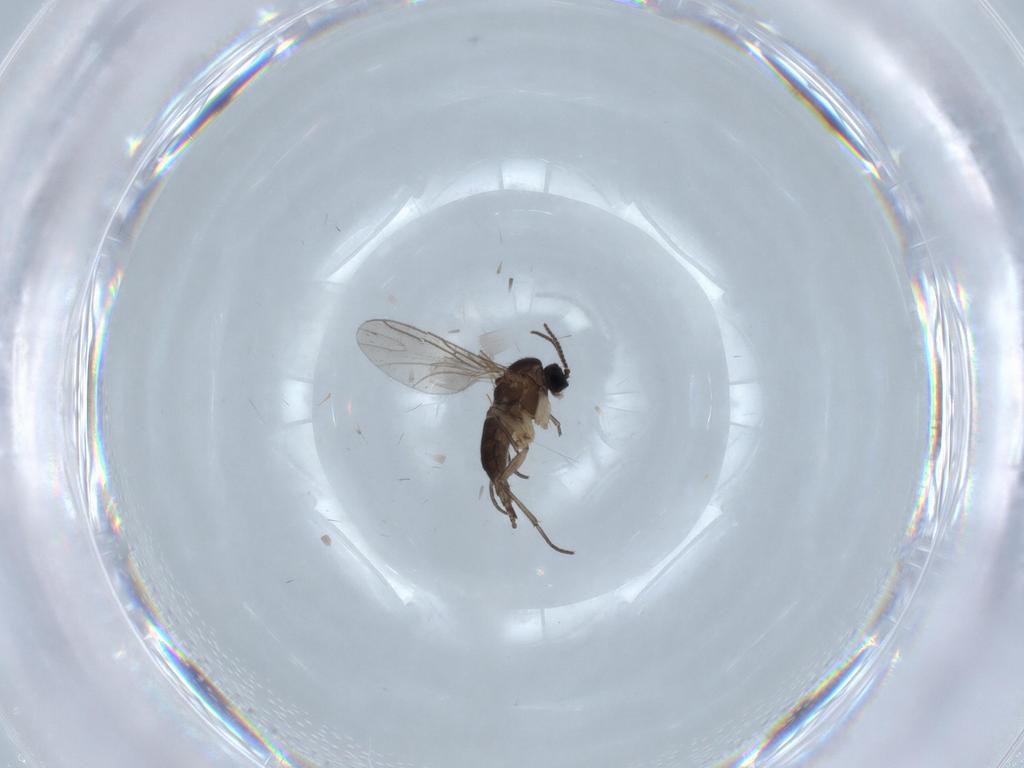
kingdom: Animalia
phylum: Arthropoda
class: Insecta
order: Diptera
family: Sciaridae
